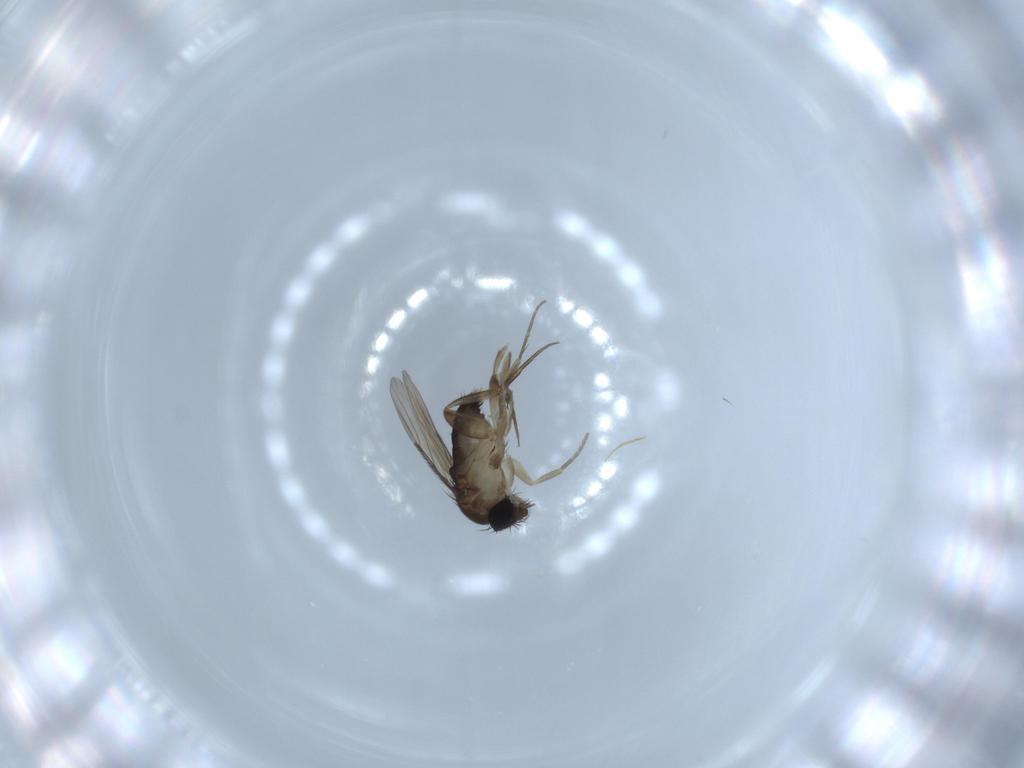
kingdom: Animalia
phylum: Arthropoda
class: Insecta
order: Diptera
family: Phoridae
